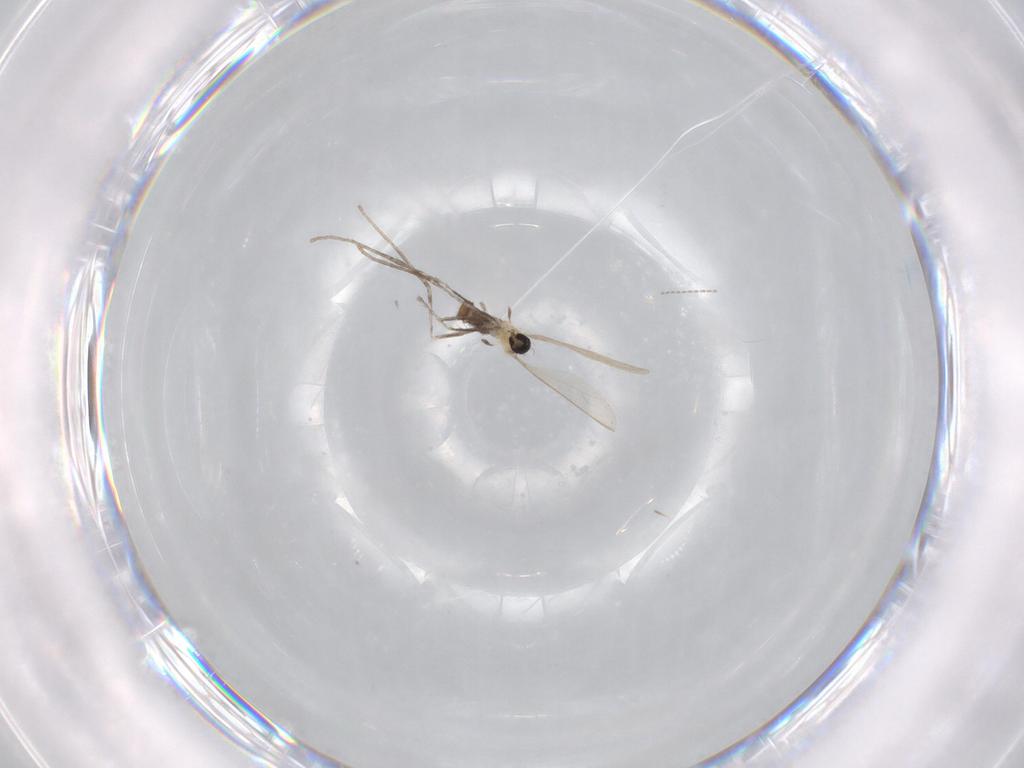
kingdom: Animalia
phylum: Arthropoda
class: Insecta
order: Diptera
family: Cecidomyiidae
